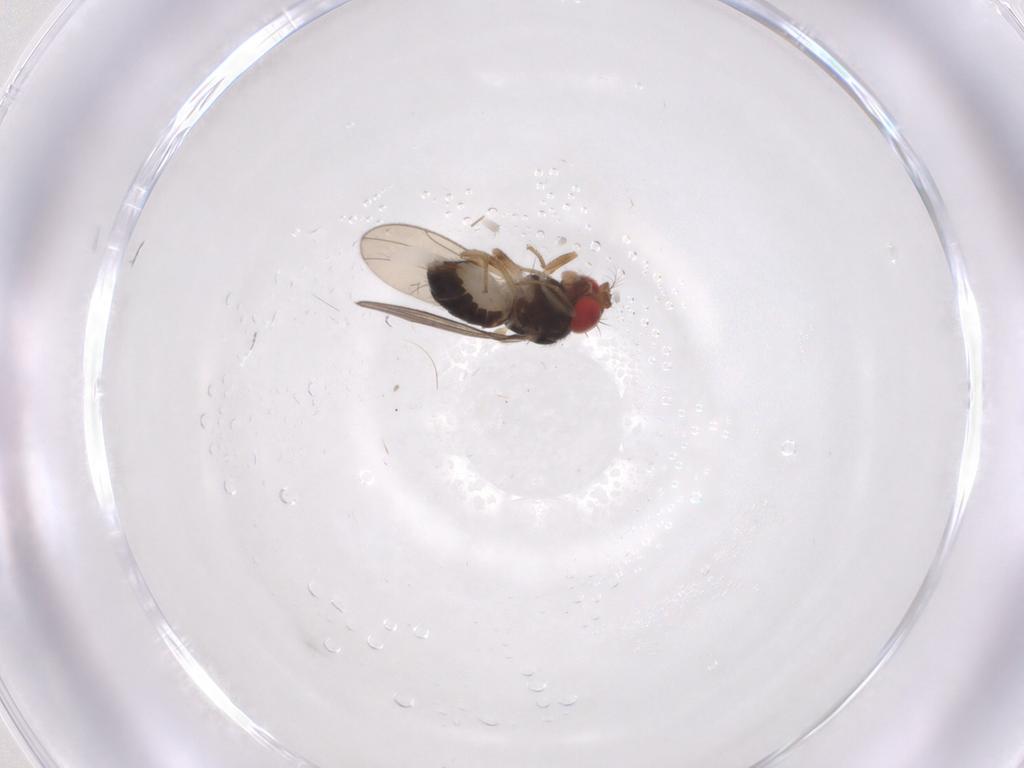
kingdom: Animalia
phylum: Arthropoda
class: Insecta
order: Diptera
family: Drosophilidae
